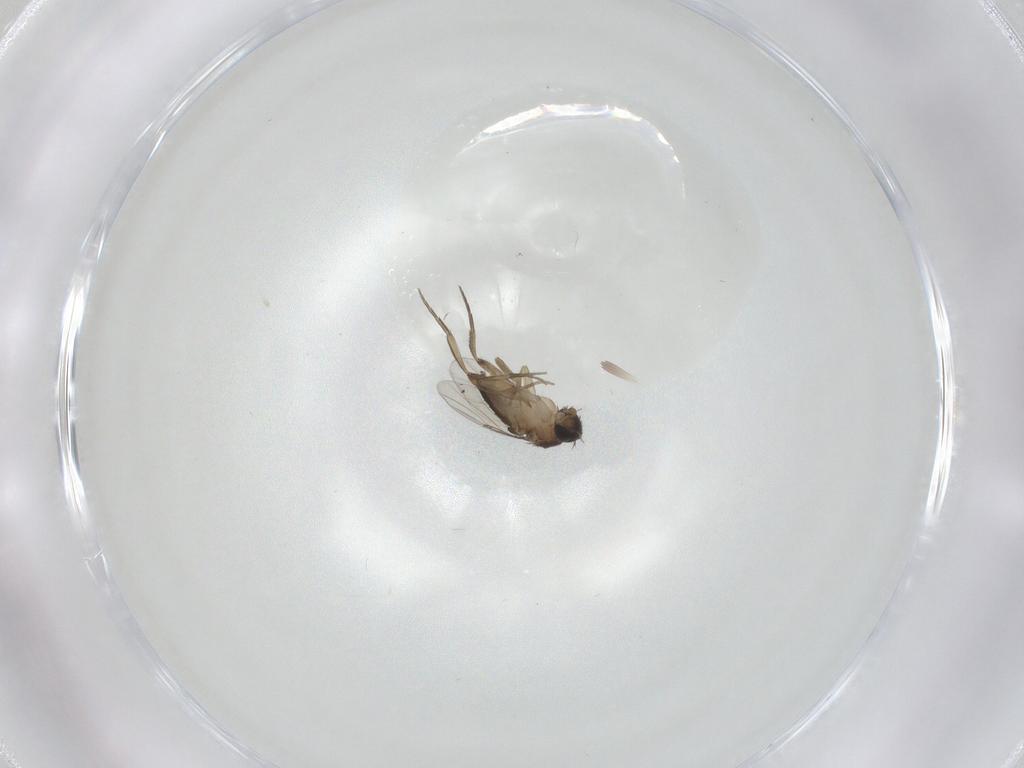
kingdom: Animalia
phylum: Arthropoda
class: Insecta
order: Diptera
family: Phoridae
